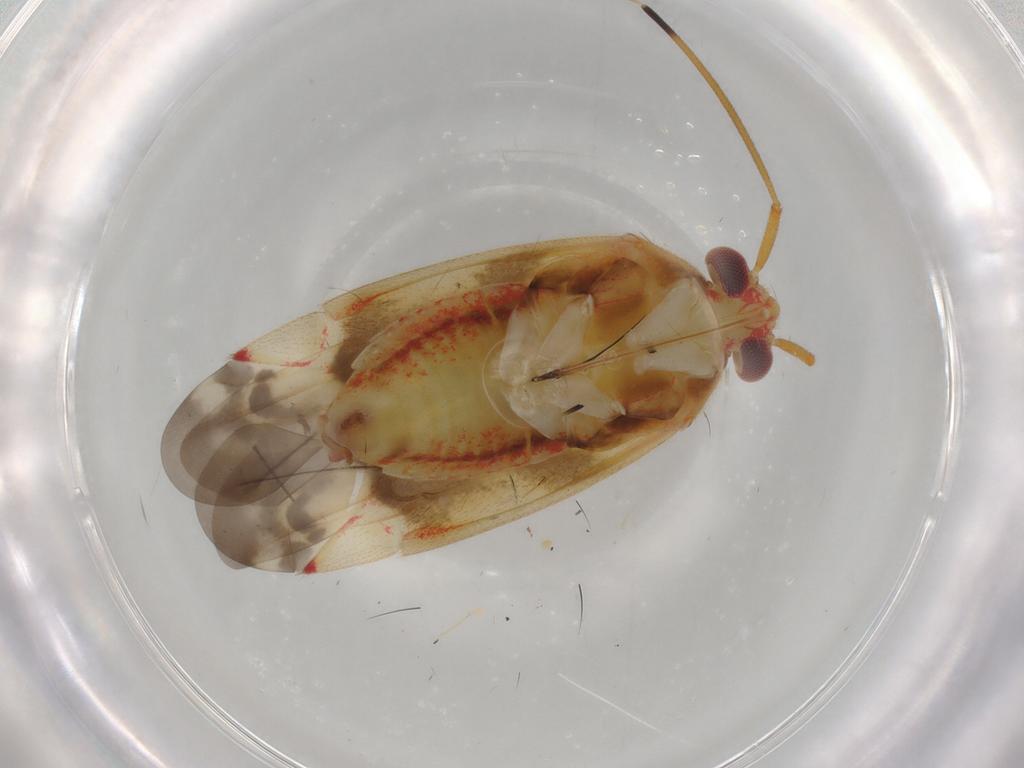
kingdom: Animalia
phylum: Arthropoda
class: Insecta
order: Hemiptera
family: Miridae
